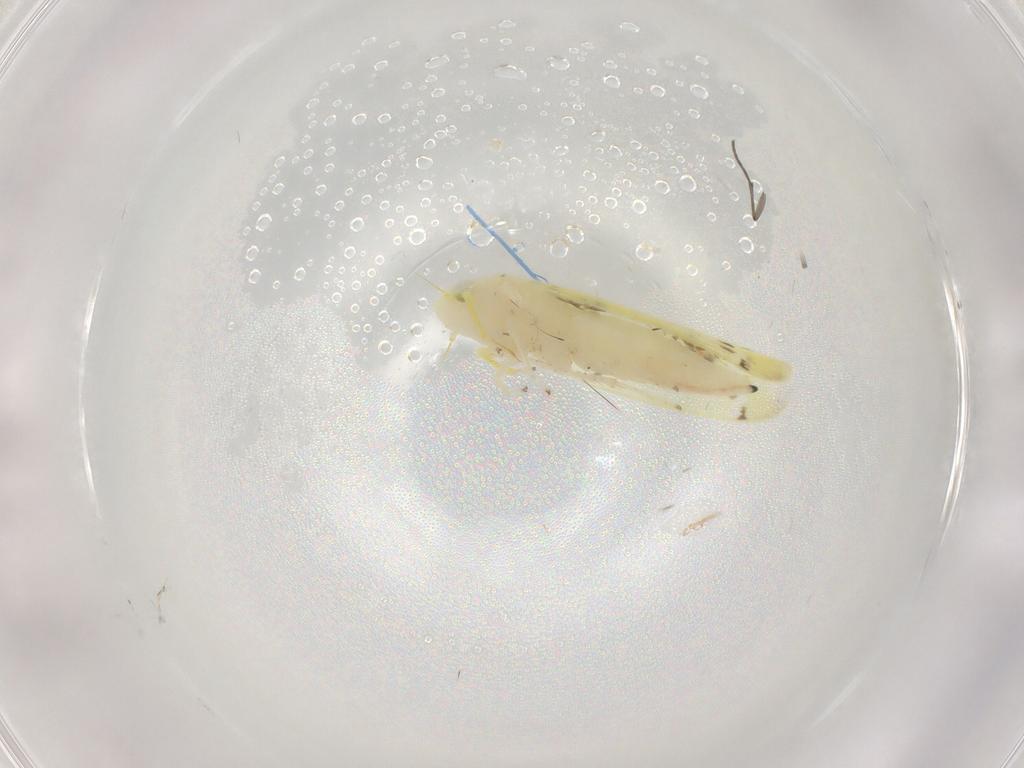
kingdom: Animalia
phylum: Arthropoda
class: Insecta
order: Hemiptera
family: Cicadellidae
